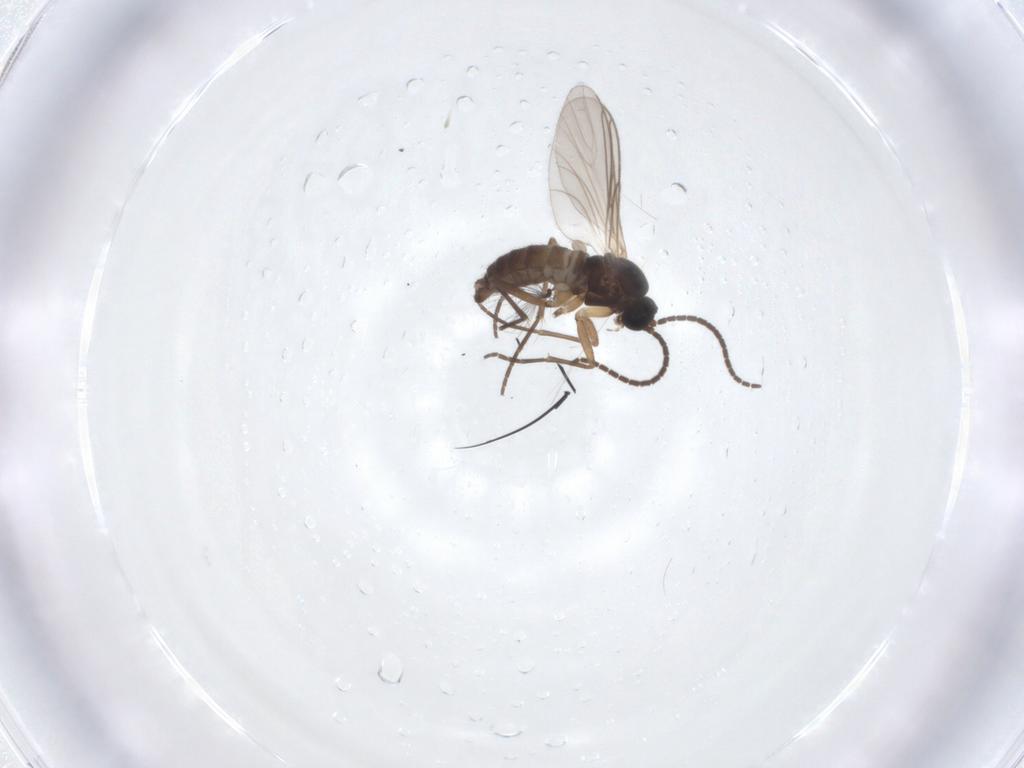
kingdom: Animalia
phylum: Arthropoda
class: Insecta
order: Diptera
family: Sciaridae
